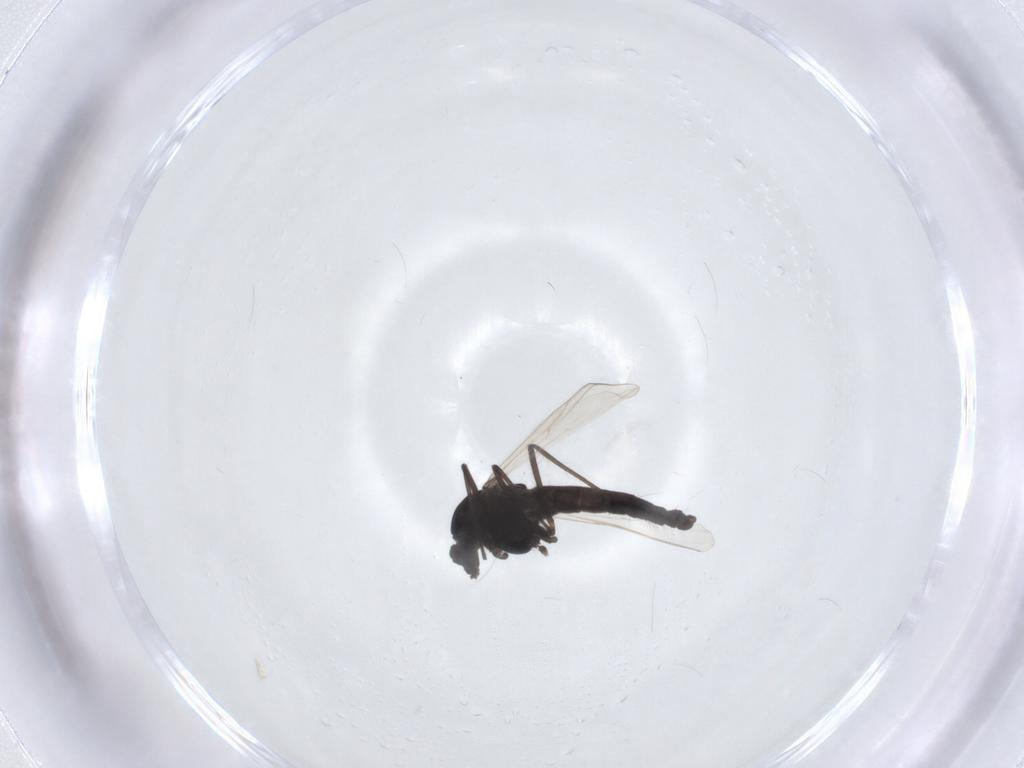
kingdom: Animalia
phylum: Arthropoda
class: Insecta
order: Diptera
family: Chironomidae
